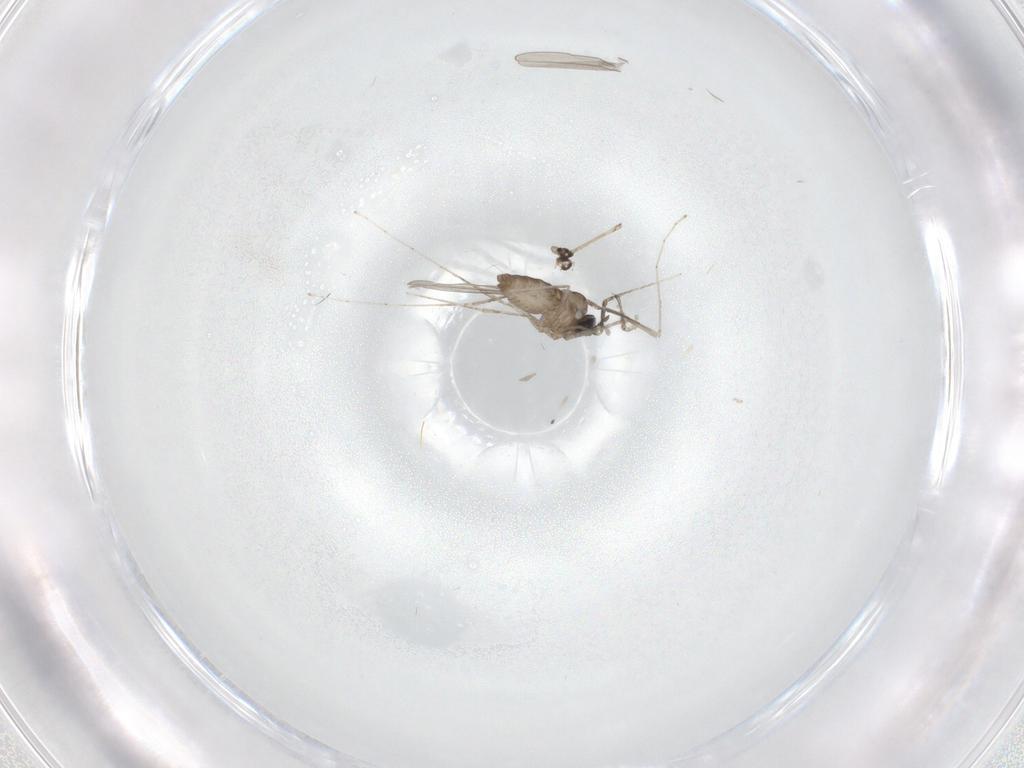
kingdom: Animalia
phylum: Arthropoda
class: Insecta
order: Diptera
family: Cecidomyiidae
